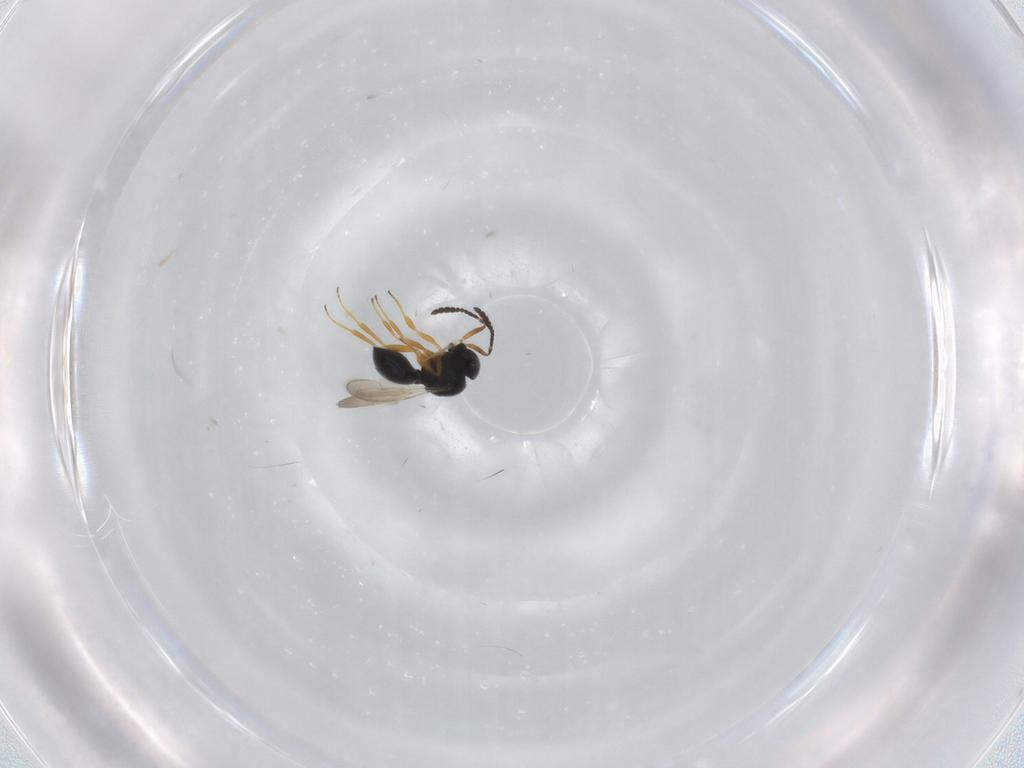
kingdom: Animalia
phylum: Arthropoda
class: Insecta
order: Hymenoptera
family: Scelionidae
